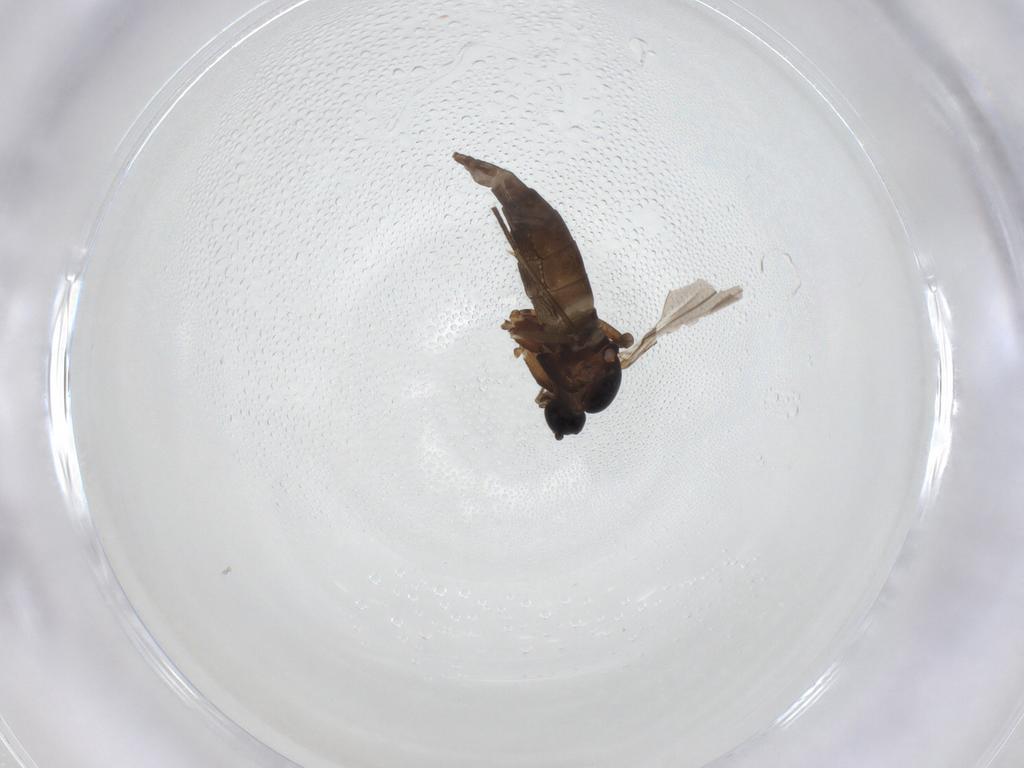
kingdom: Animalia
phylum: Arthropoda
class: Insecta
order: Diptera
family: Sciaridae
